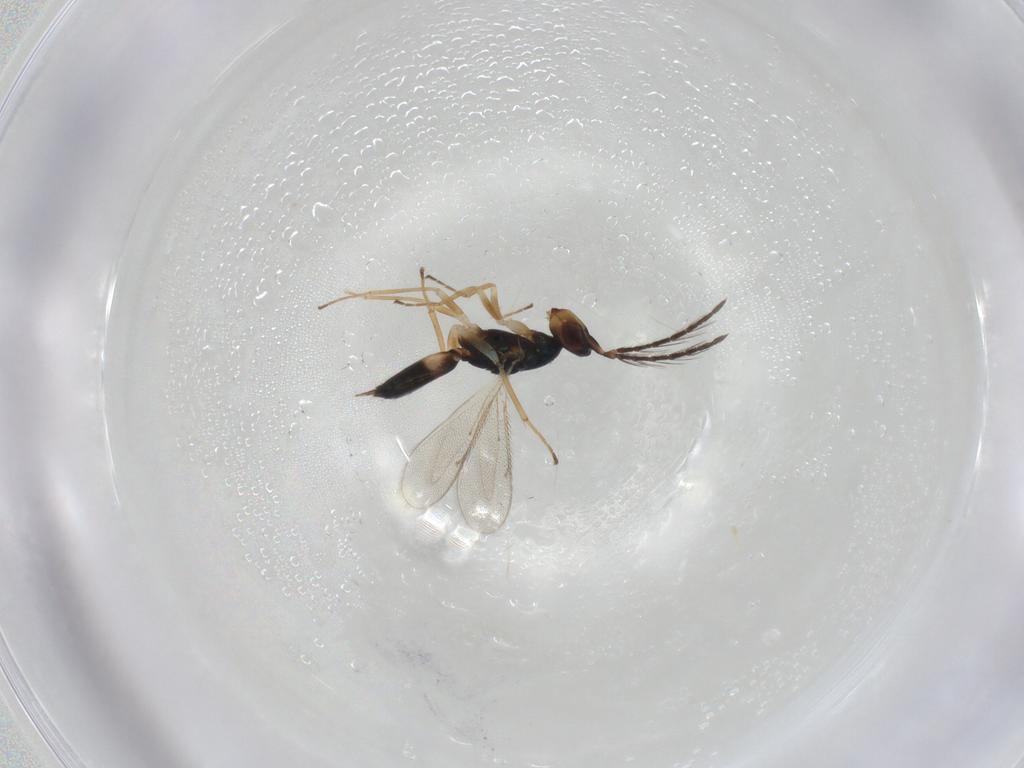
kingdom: Animalia
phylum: Arthropoda
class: Insecta
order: Hymenoptera
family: Eulophidae
